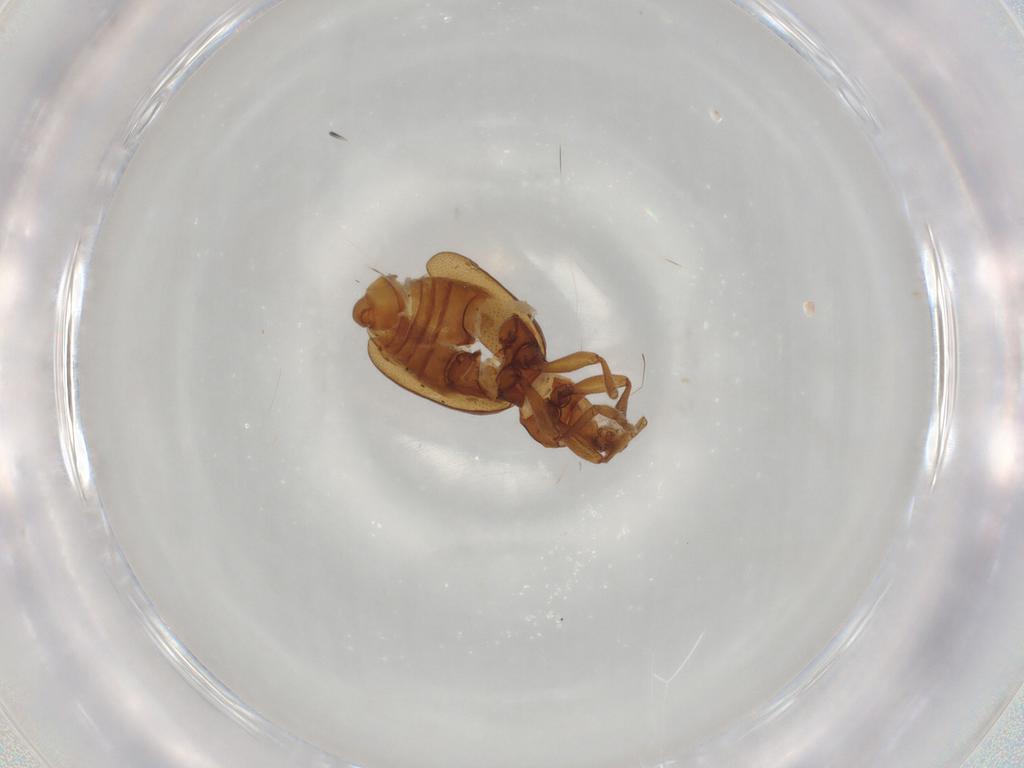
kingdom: Animalia
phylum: Arthropoda
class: Insecta
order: Coleoptera
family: Chrysomelidae
